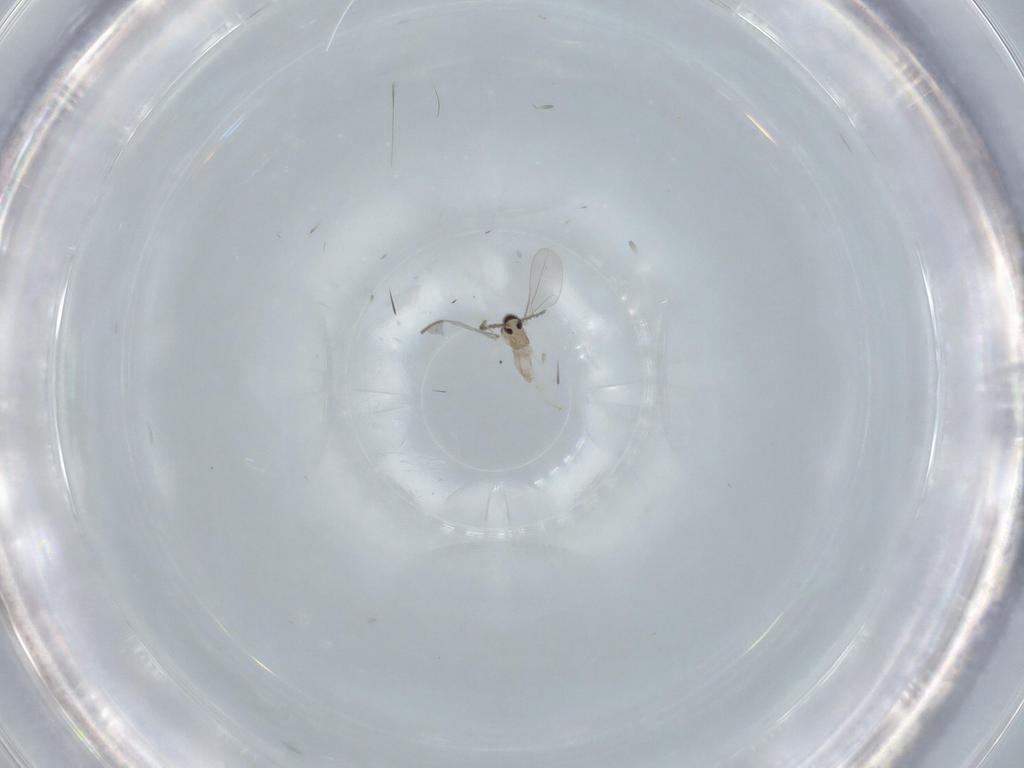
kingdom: Animalia
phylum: Arthropoda
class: Insecta
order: Diptera
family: Cecidomyiidae
